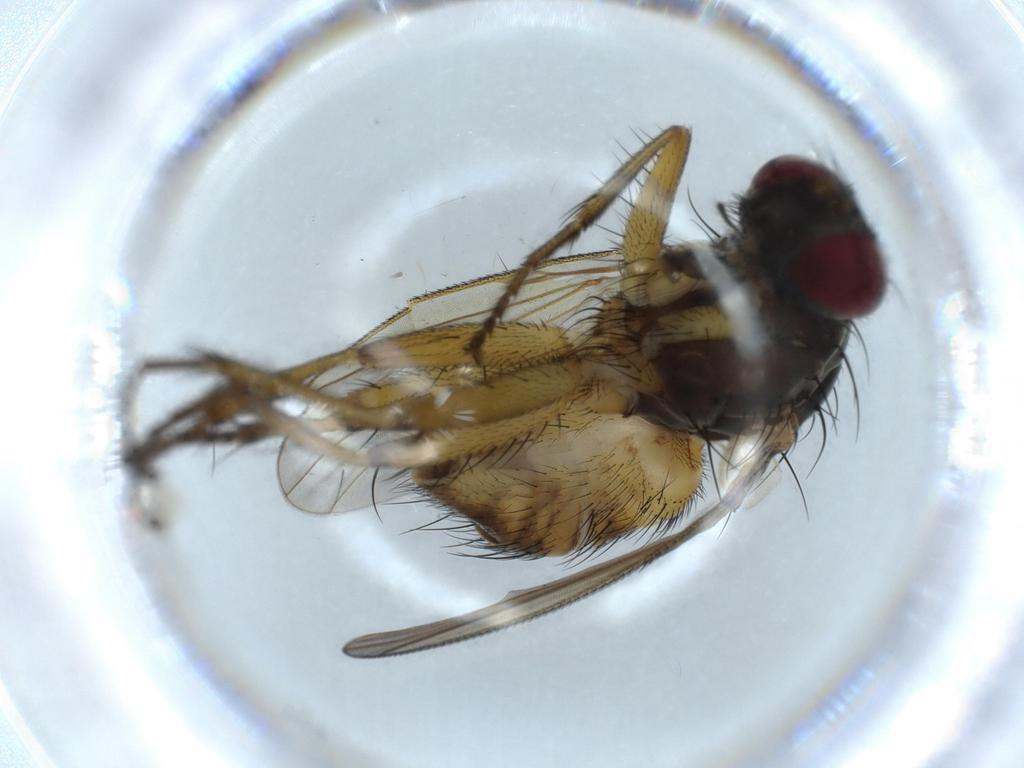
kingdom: Animalia
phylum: Arthropoda
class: Insecta
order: Diptera
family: Muscidae
